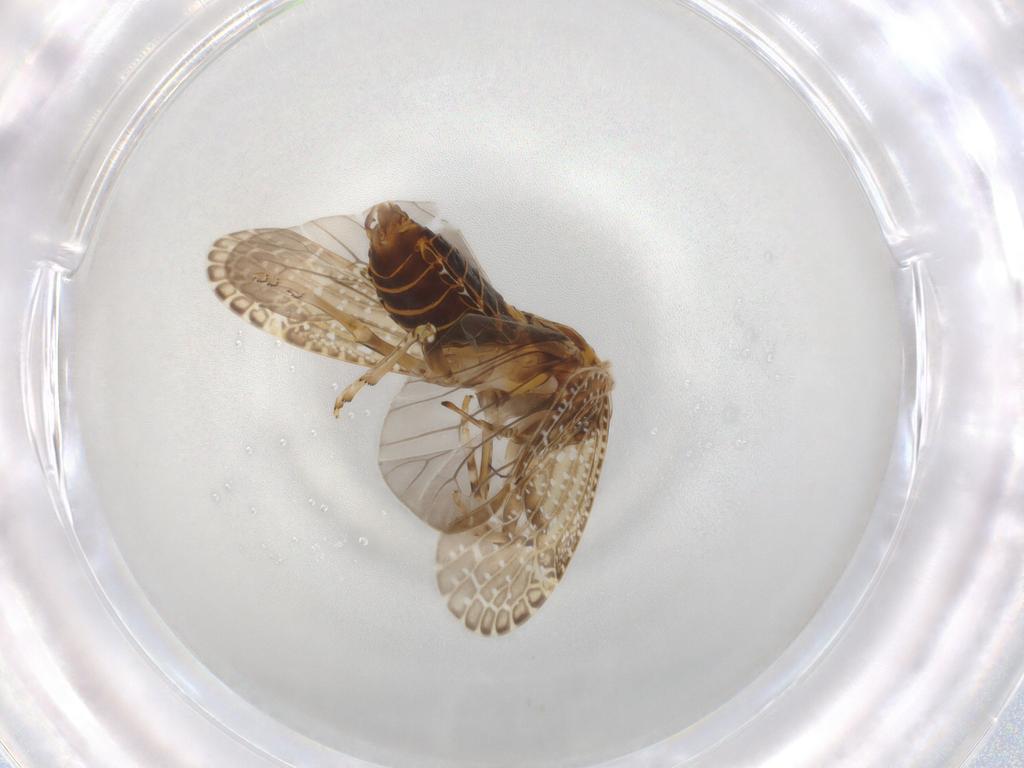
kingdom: Animalia
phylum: Arthropoda
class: Insecta
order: Hemiptera
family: Achilidae
